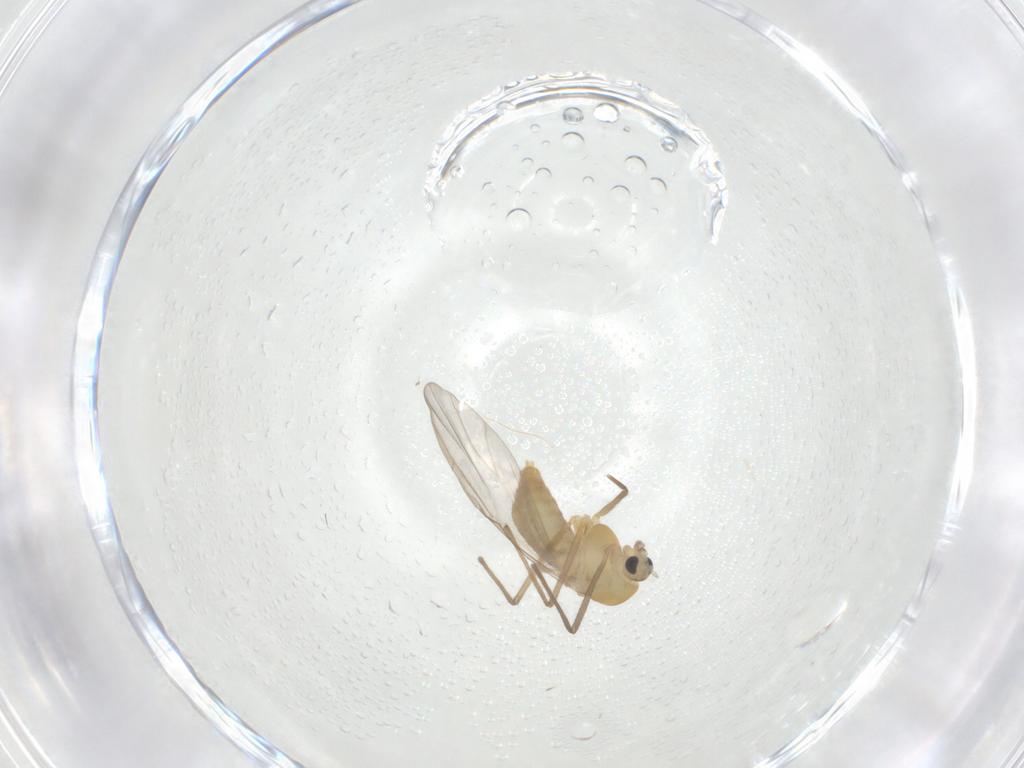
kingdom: Animalia
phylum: Arthropoda
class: Insecta
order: Diptera
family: Chironomidae
